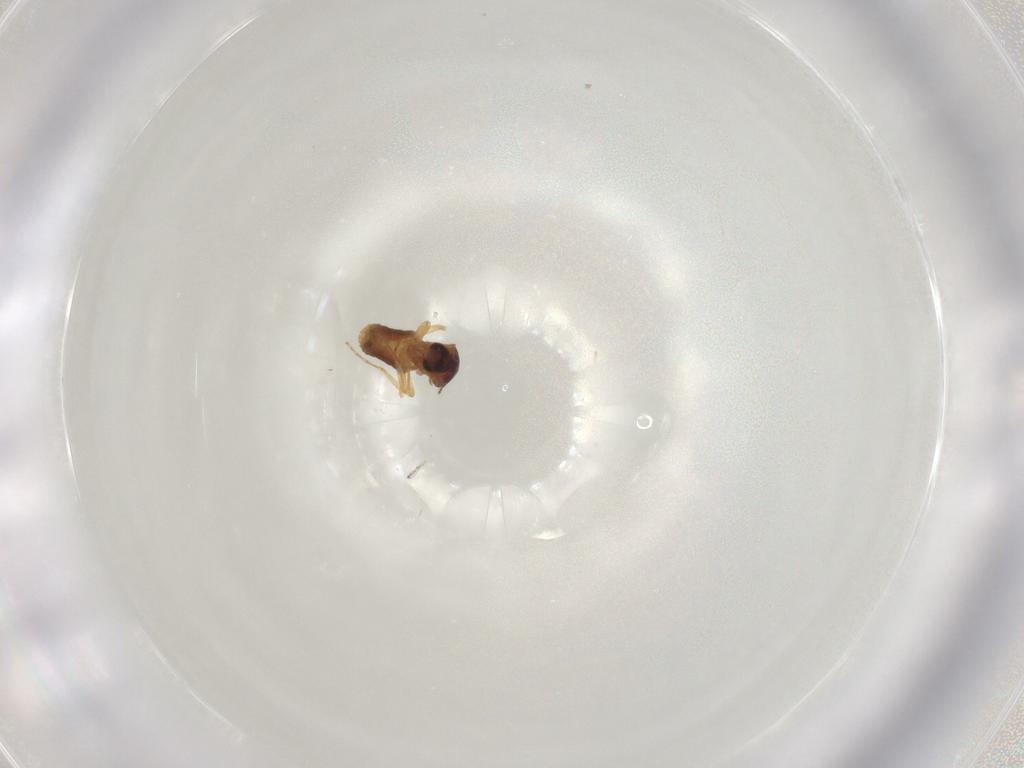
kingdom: Animalia
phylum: Arthropoda
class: Insecta
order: Diptera
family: Ceratopogonidae
